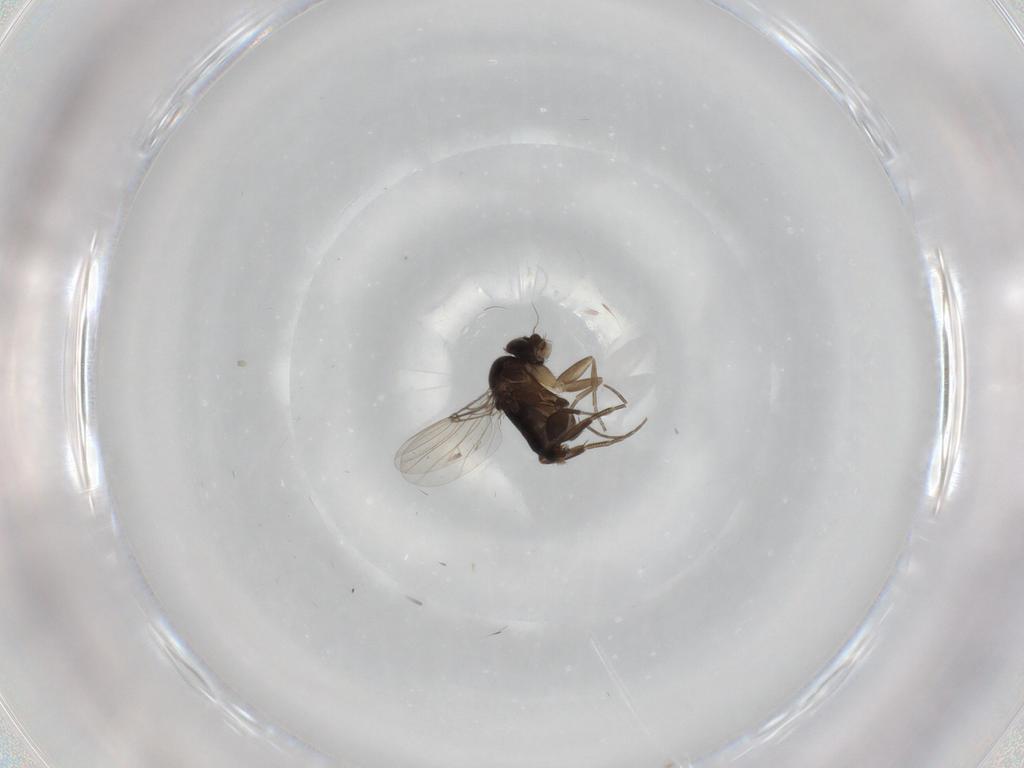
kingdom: Animalia
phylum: Arthropoda
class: Insecta
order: Diptera
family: Phoridae
